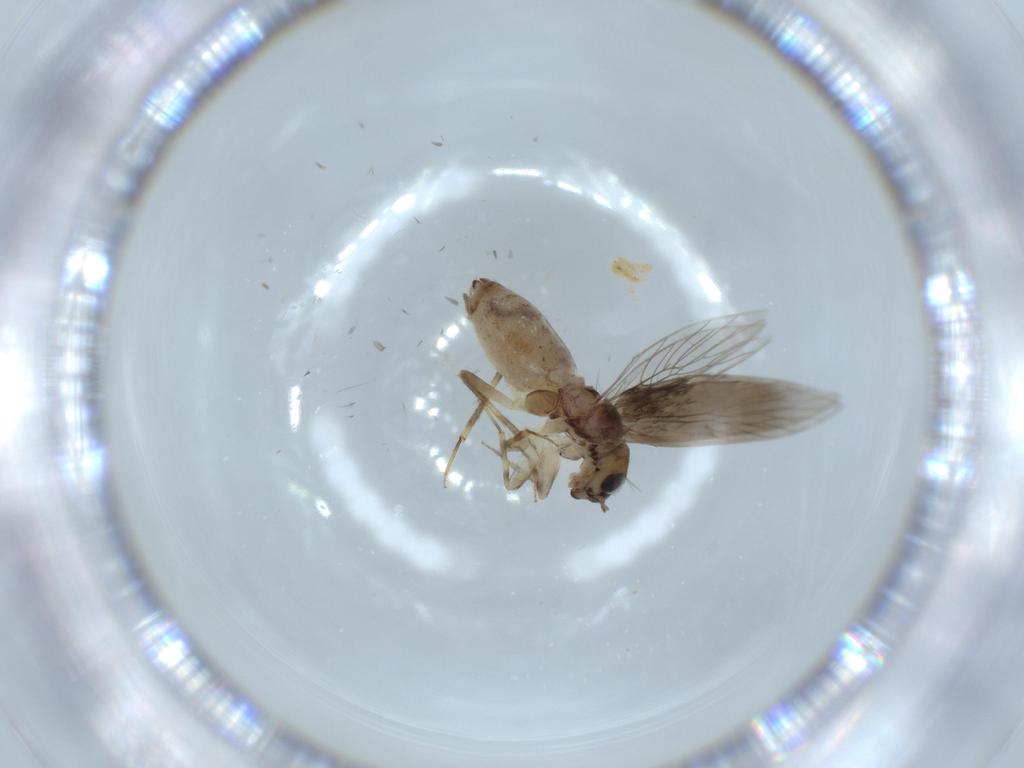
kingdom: Animalia
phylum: Arthropoda
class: Insecta
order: Psocodea
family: Lepidopsocidae
